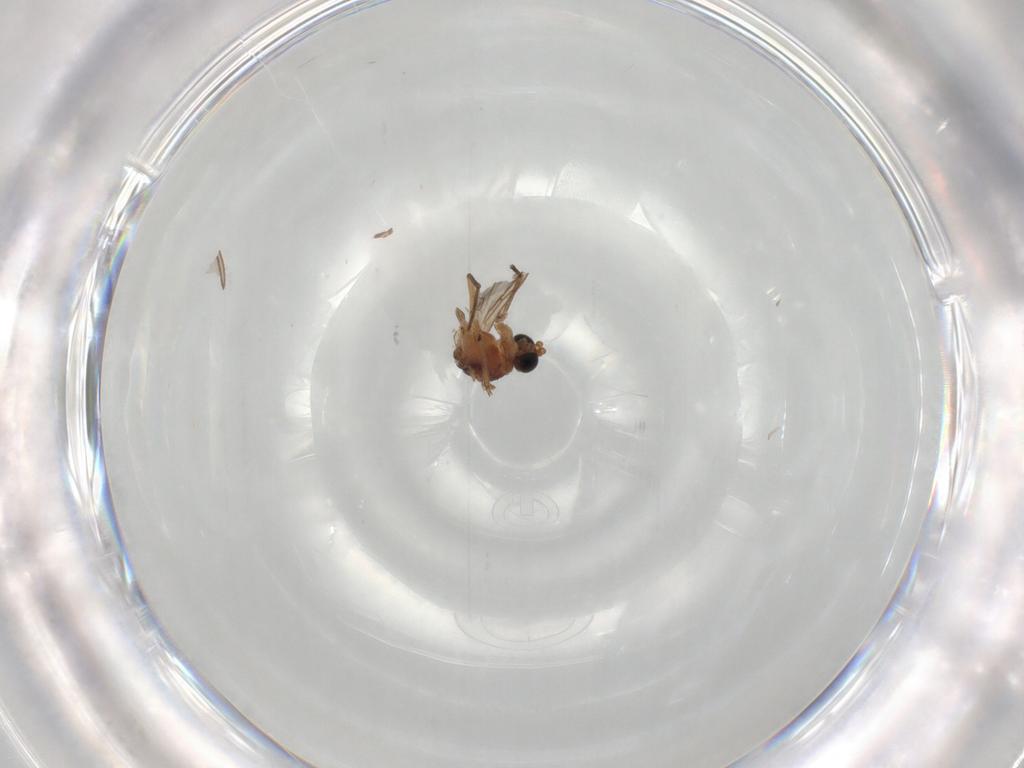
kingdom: Animalia
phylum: Arthropoda
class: Insecta
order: Diptera
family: Sciaridae
